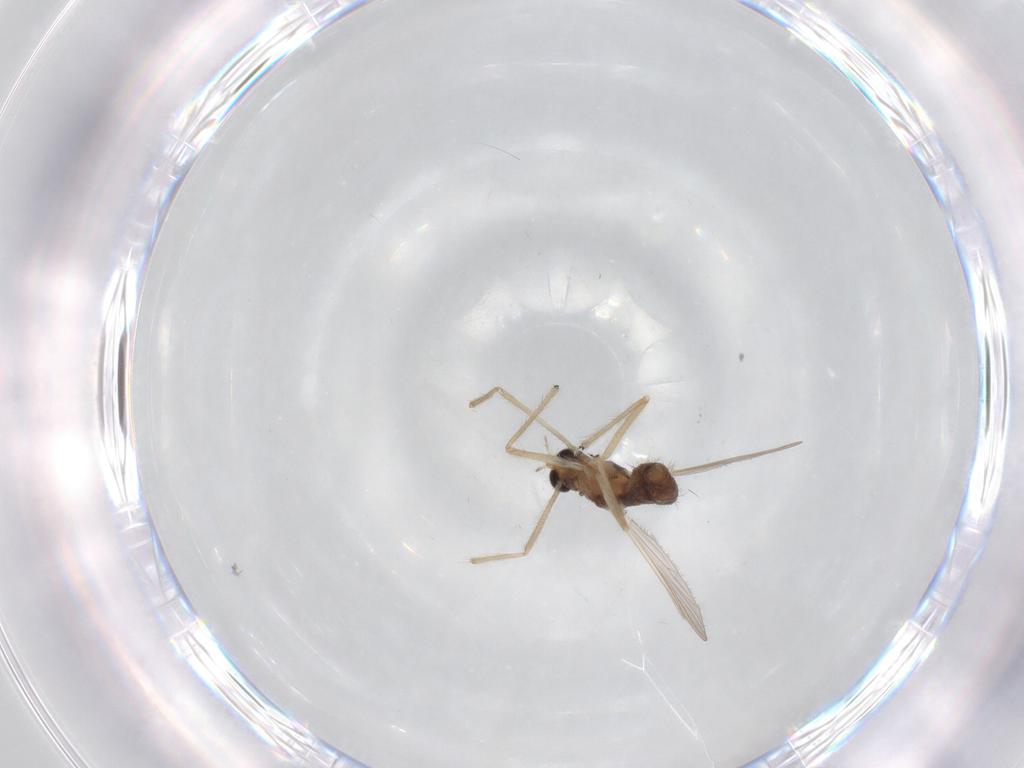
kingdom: Animalia
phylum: Arthropoda
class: Insecta
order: Diptera
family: Chironomidae
